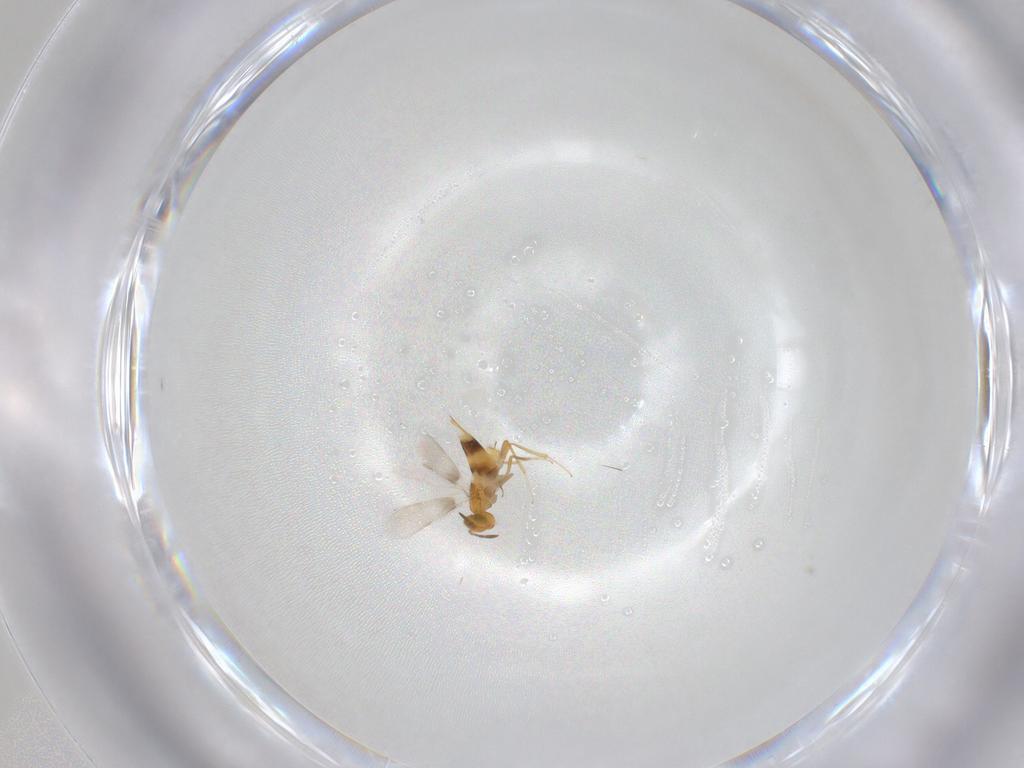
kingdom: Animalia
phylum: Arthropoda
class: Insecta
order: Hymenoptera
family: Aphelinidae
